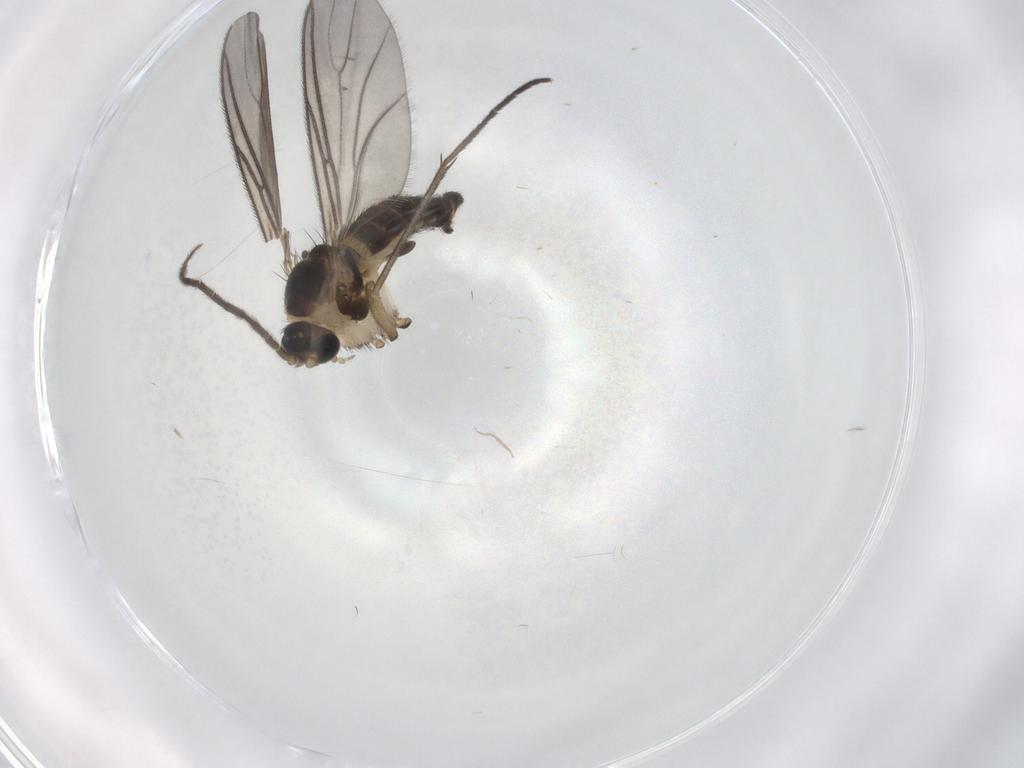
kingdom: Animalia
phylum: Arthropoda
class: Insecta
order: Diptera
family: Sciaridae
